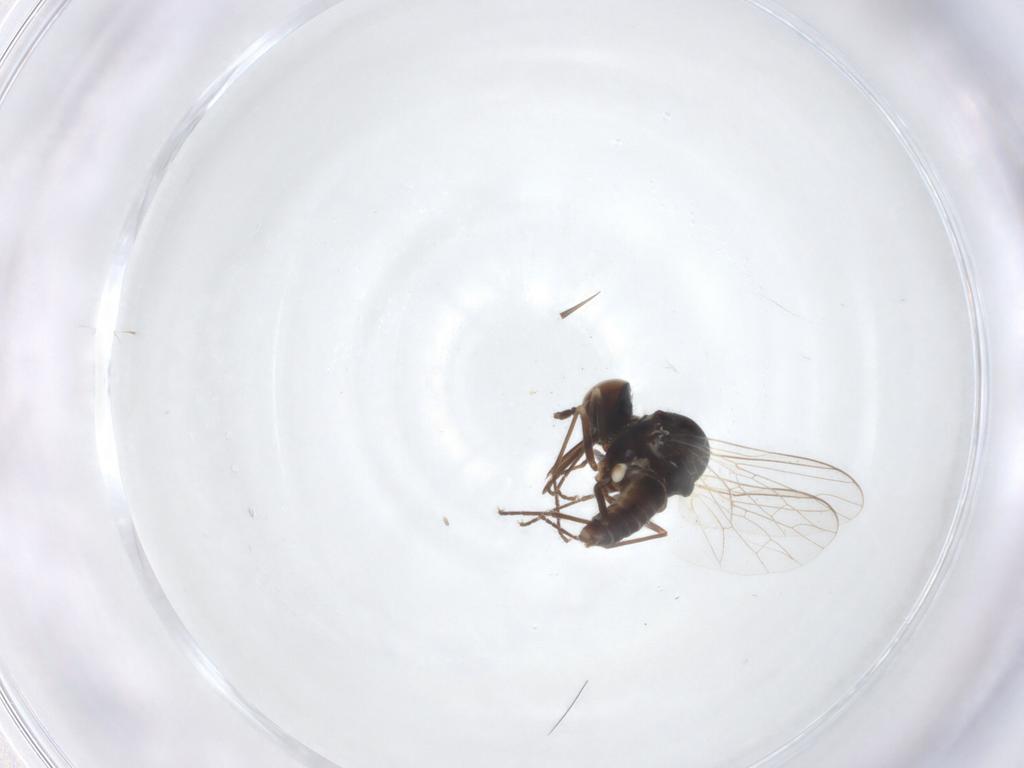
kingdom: Animalia
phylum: Arthropoda
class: Insecta
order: Diptera
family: Bombyliidae
